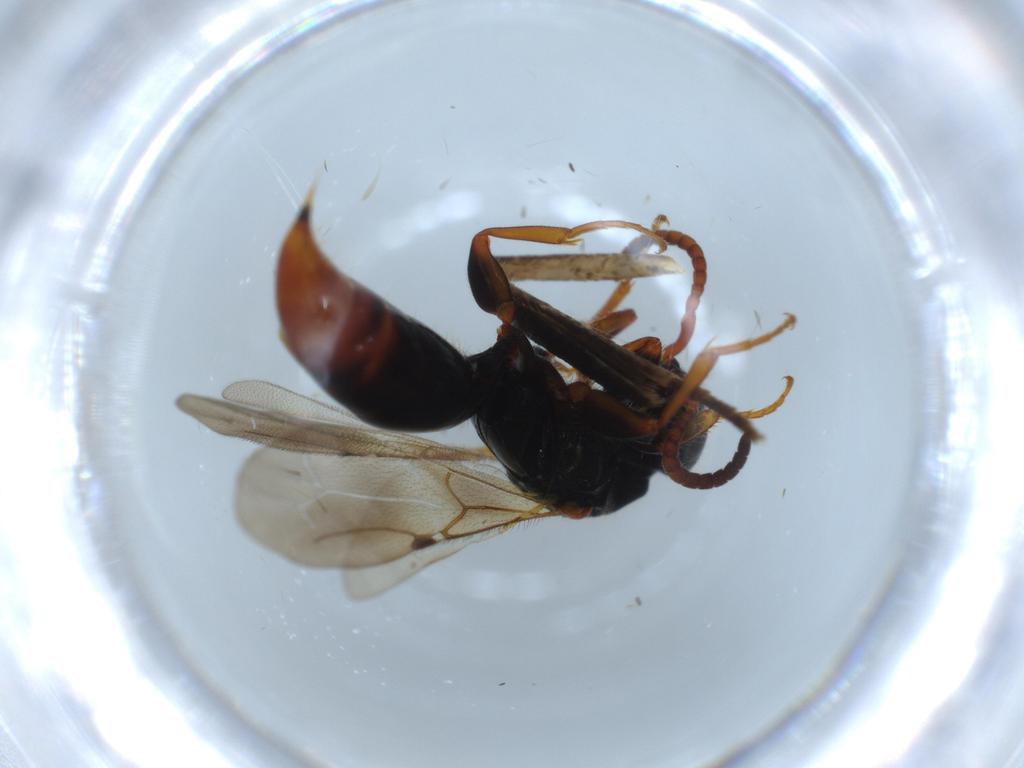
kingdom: Animalia
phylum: Arthropoda
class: Insecta
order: Hymenoptera
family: Bethylidae
